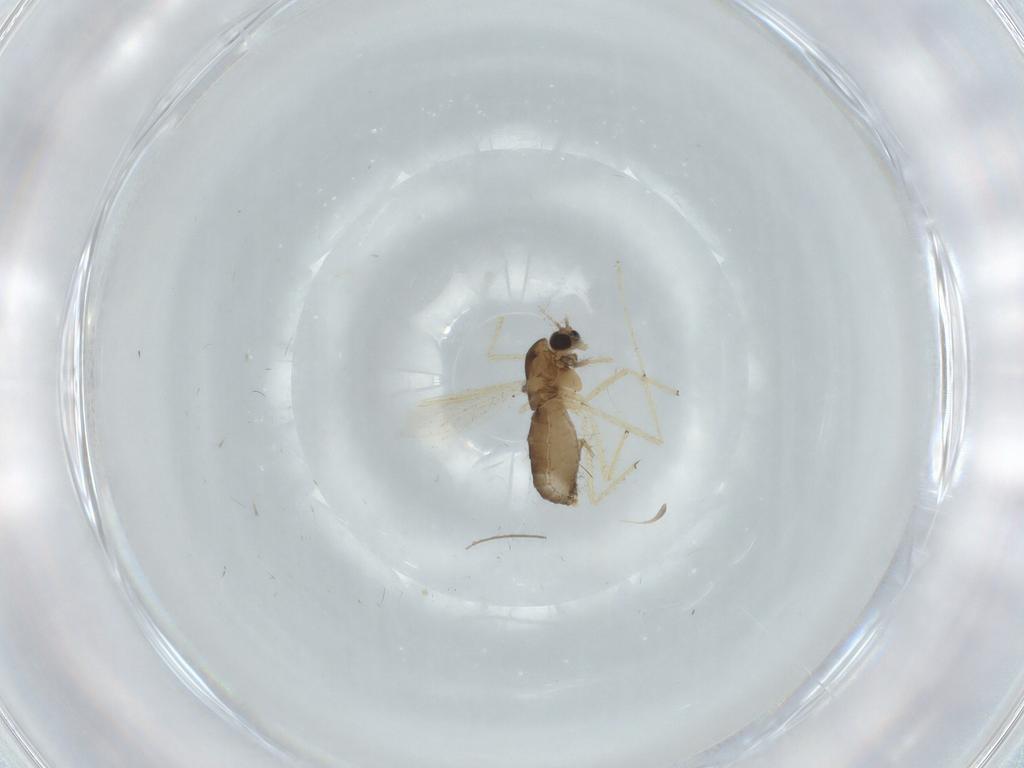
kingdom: Animalia
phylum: Arthropoda
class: Insecta
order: Diptera
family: Chironomidae
